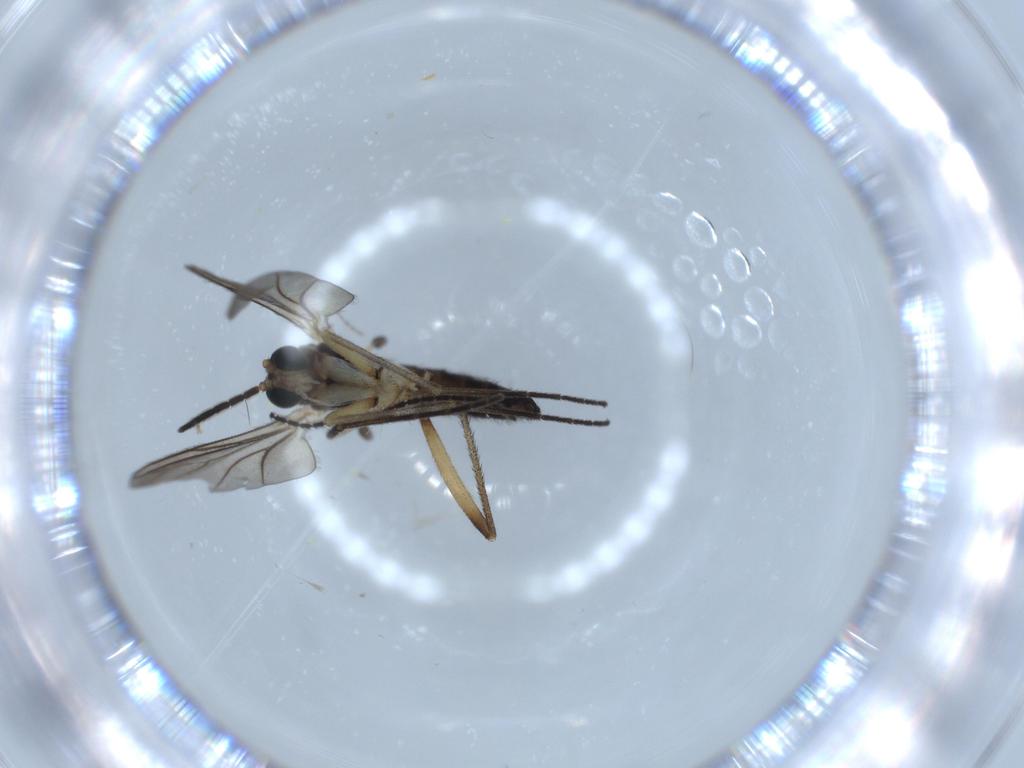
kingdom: Animalia
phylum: Arthropoda
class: Insecta
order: Diptera
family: Sciaridae
